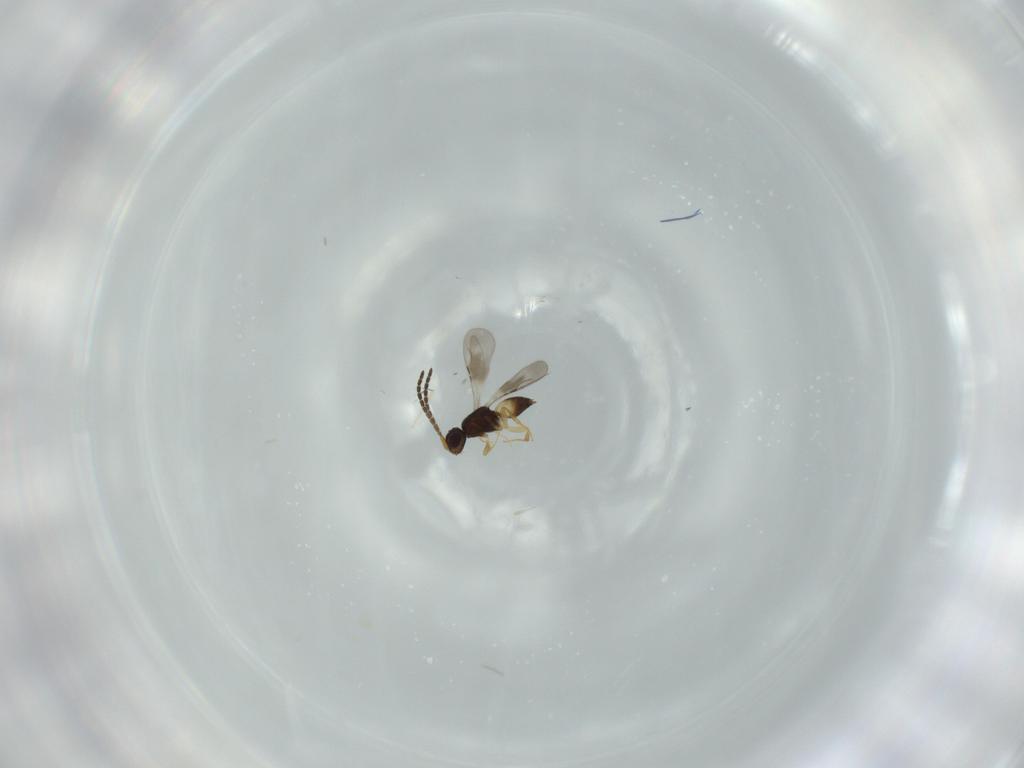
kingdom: Animalia
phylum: Arthropoda
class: Insecta
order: Hymenoptera
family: Ceraphronidae
